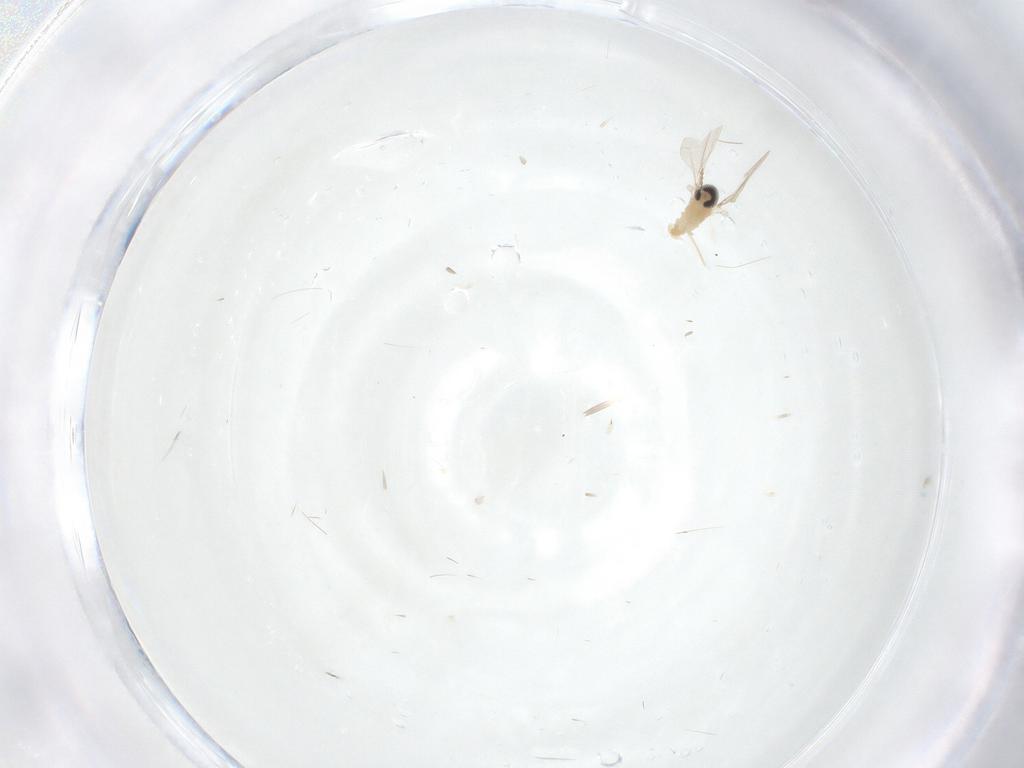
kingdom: Animalia
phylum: Arthropoda
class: Insecta
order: Diptera
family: Cecidomyiidae
